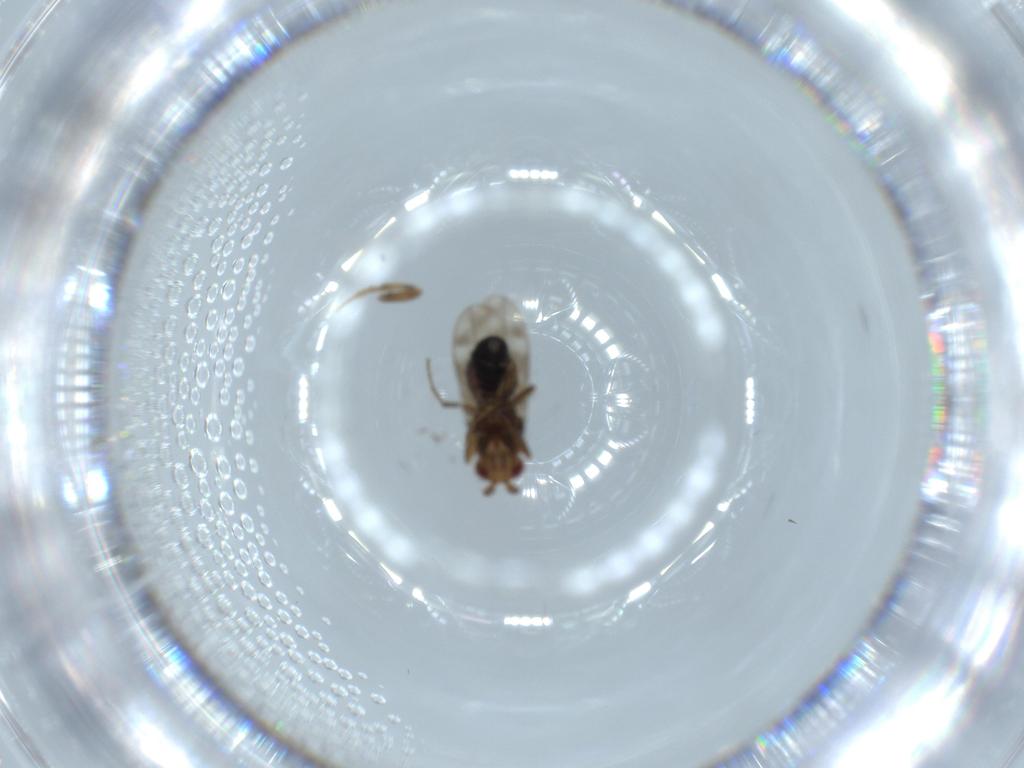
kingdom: Animalia
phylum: Arthropoda
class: Insecta
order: Diptera
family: Sphaeroceridae
